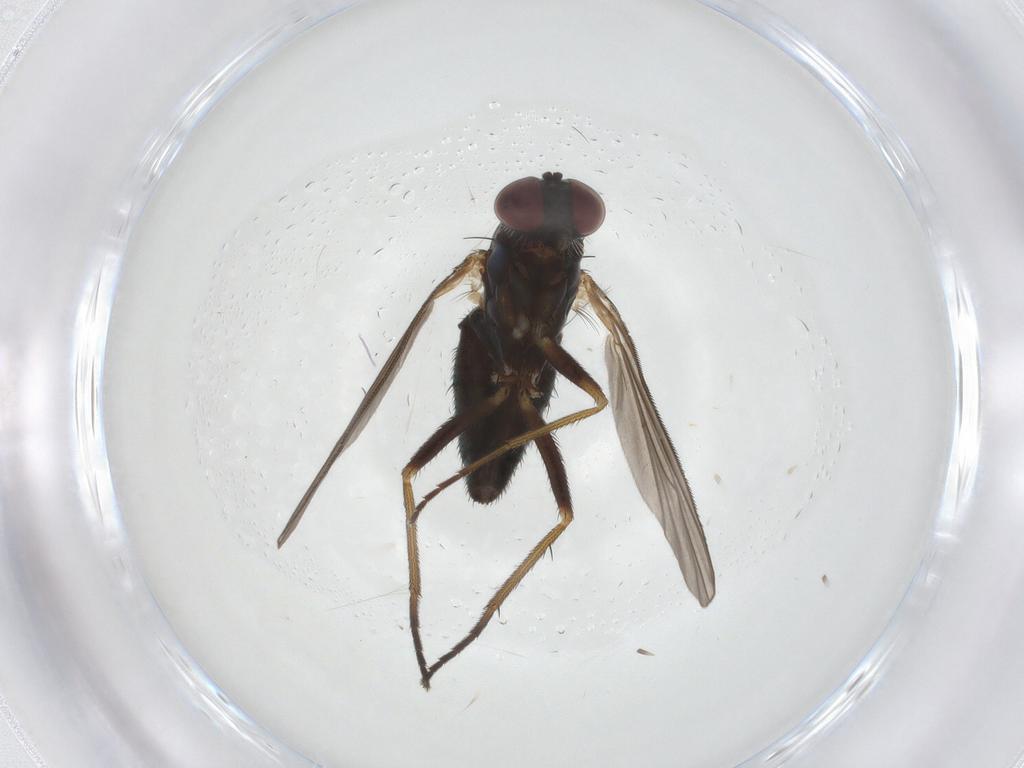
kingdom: Animalia
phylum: Arthropoda
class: Insecta
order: Diptera
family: Dolichopodidae
